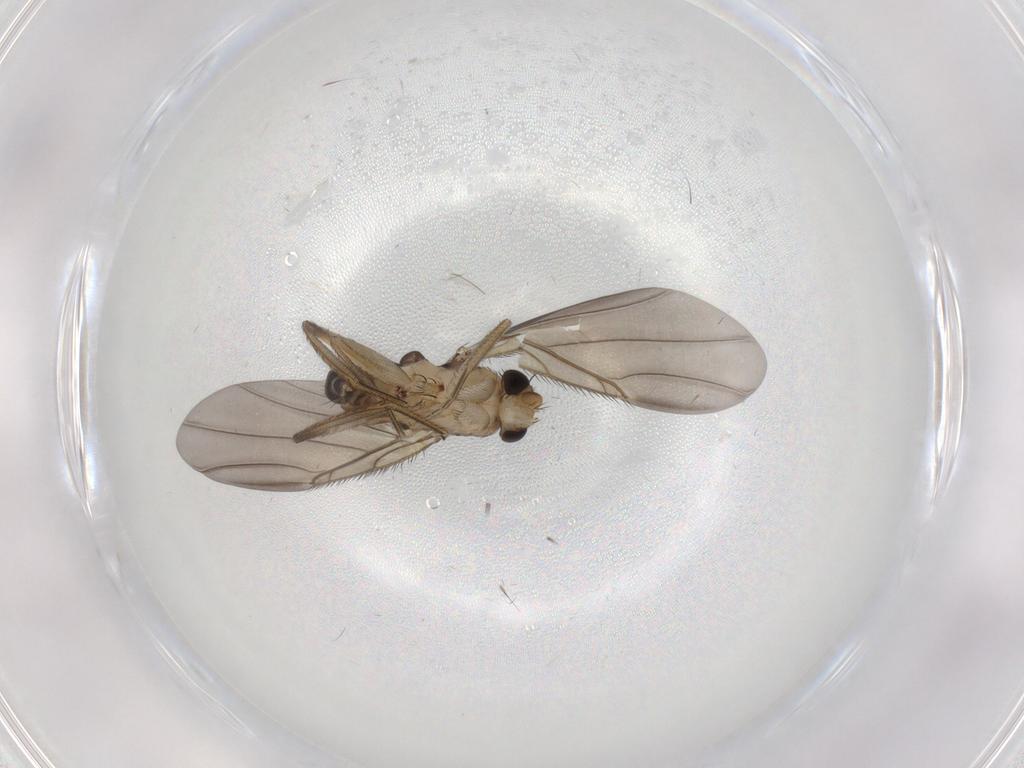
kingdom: Animalia
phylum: Arthropoda
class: Insecta
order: Diptera
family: Phoridae
